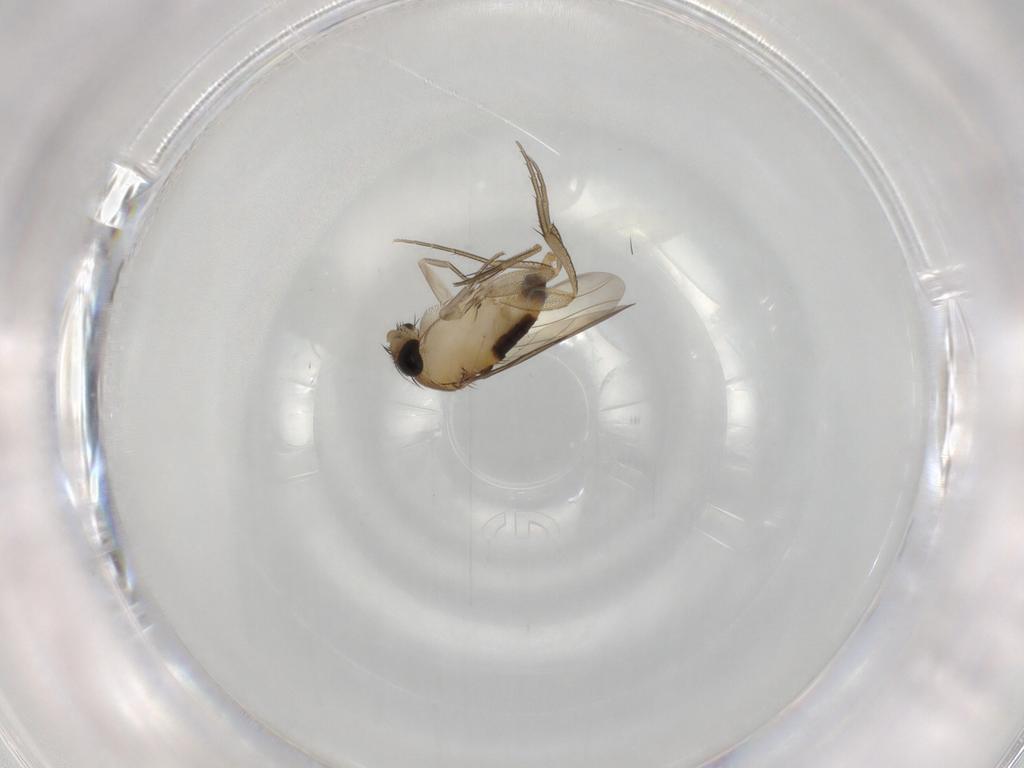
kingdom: Animalia
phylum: Arthropoda
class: Insecta
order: Diptera
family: Phoridae
